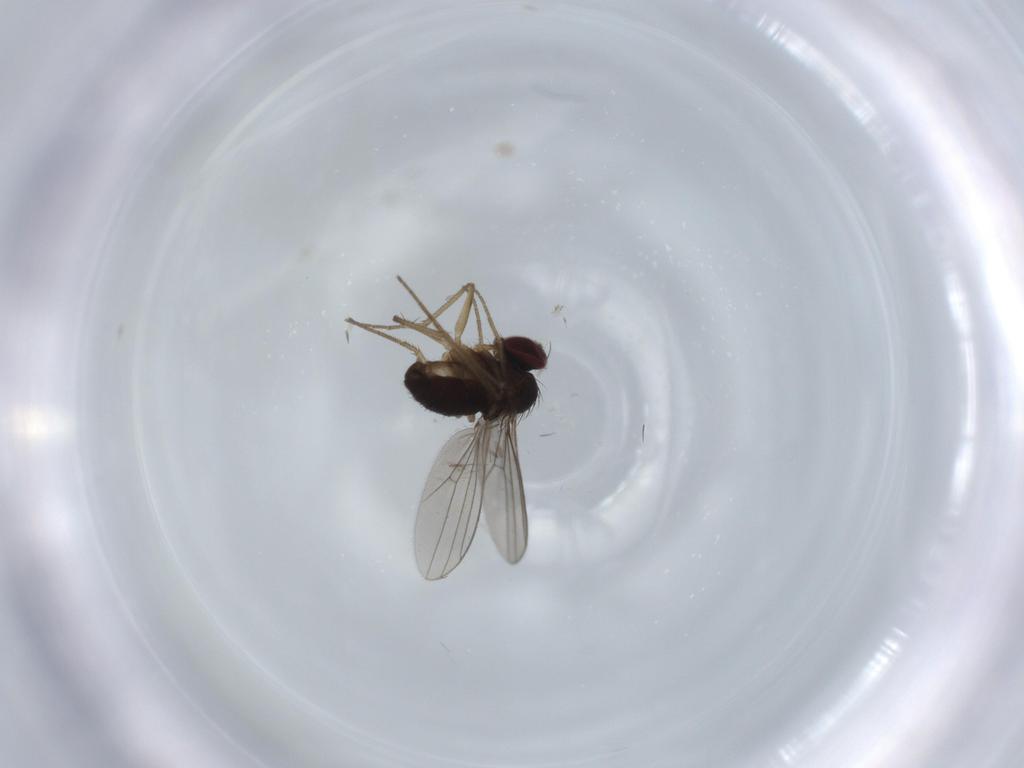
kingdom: Animalia
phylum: Arthropoda
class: Insecta
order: Diptera
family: Dolichopodidae
